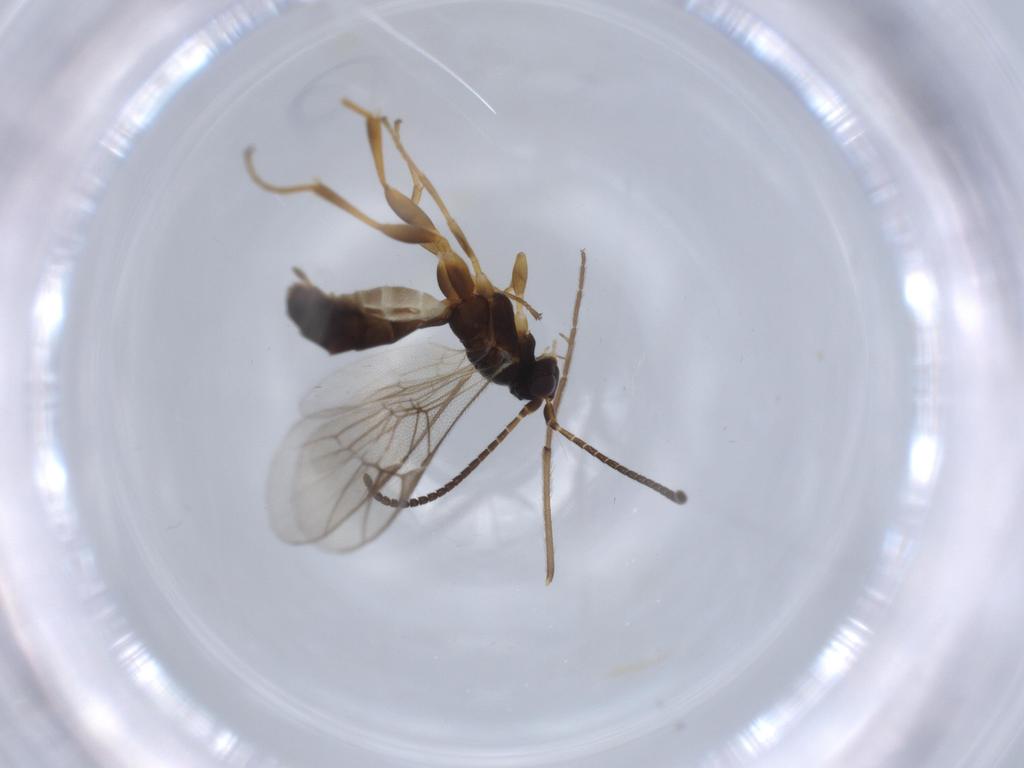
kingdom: Animalia
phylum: Arthropoda
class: Insecta
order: Hymenoptera
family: Ichneumonidae
